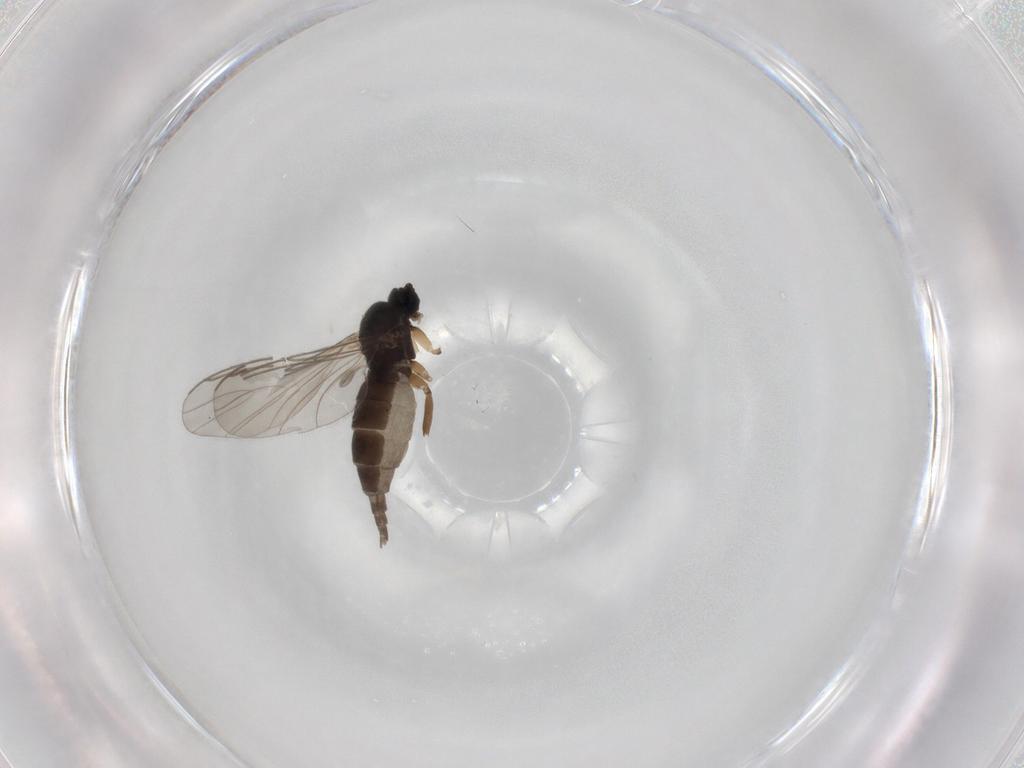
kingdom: Animalia
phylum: Arthropoda
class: Insecta
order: Diptera
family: Sciaridae
